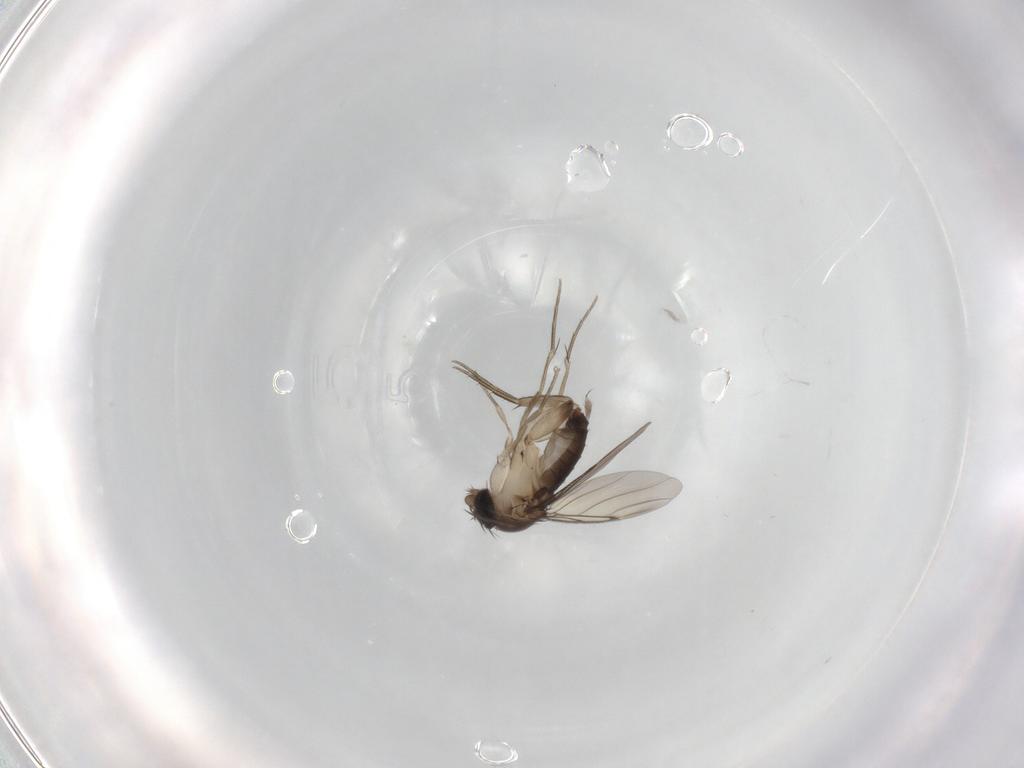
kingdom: Animalia
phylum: Arthropoda
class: Insecta
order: Diptera
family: Phoridae
